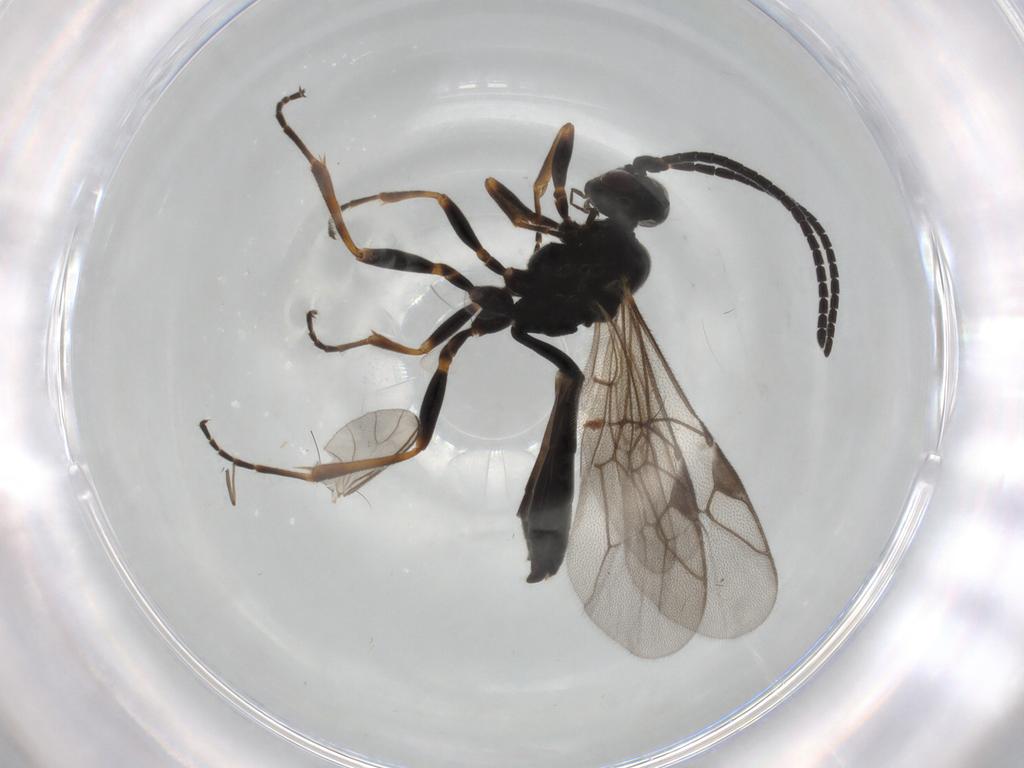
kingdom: Animalia
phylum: Arthropoda
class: Insecta
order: Hymenoptera
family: Ichneumonidae
